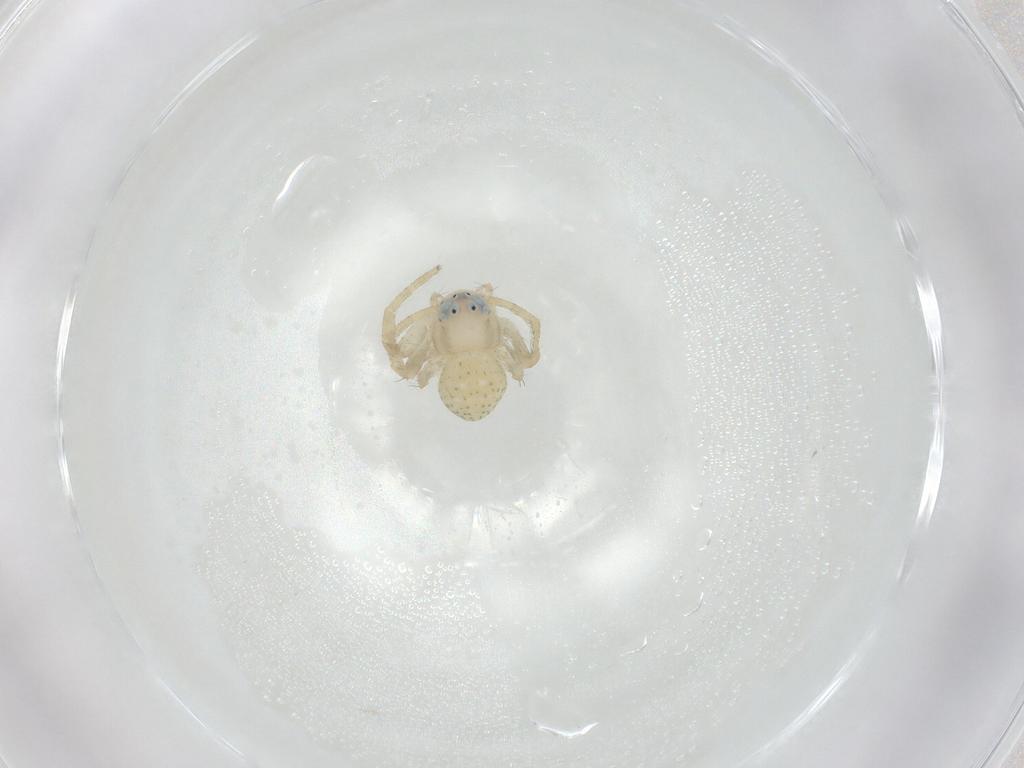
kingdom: Animalia
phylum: Arthropoda
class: Arachnida
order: Araneae
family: Thomisidae
